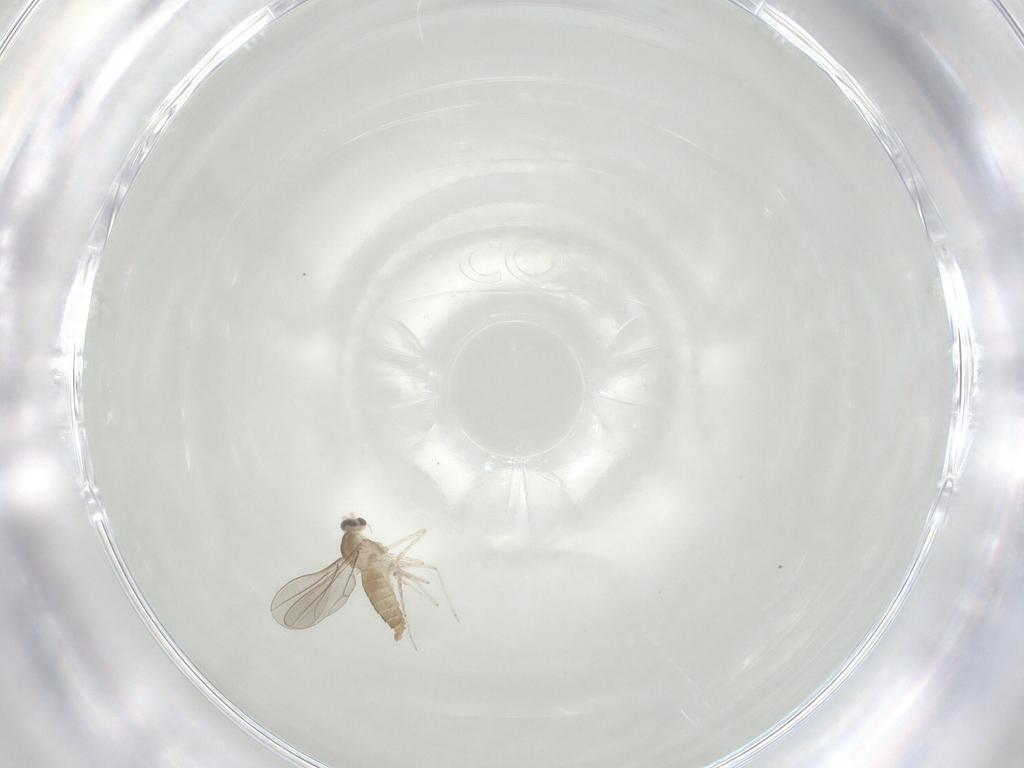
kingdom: Animalia
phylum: Arthropoda
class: Insecta
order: Diptera
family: Cecidomyiidae
